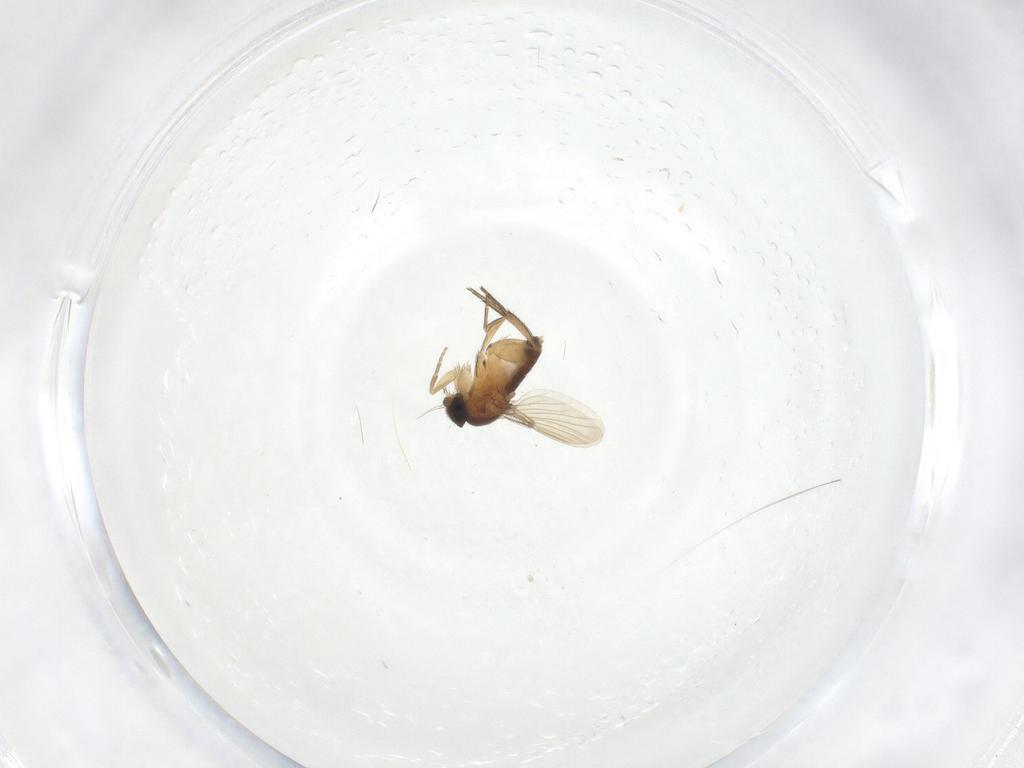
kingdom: Animalia
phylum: Arthropoda
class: Insecta
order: Diptera
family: Phoridae
